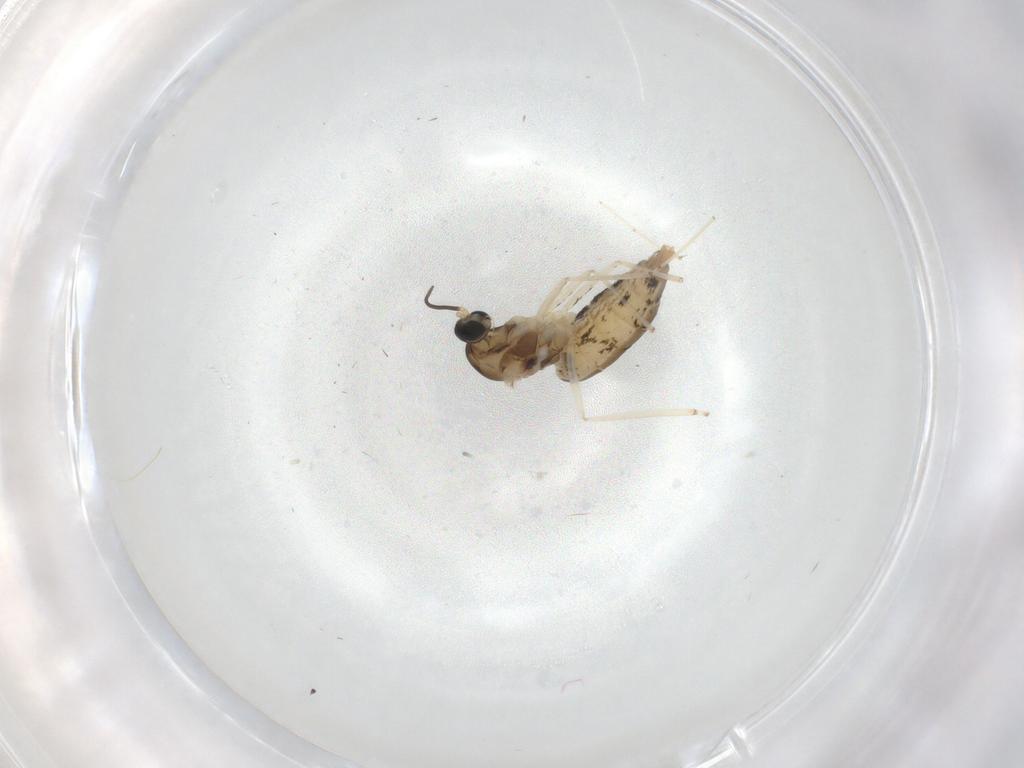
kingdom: Animalia
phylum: Arthropoda
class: Insecta
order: Diptera
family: Cecidomyiidae
